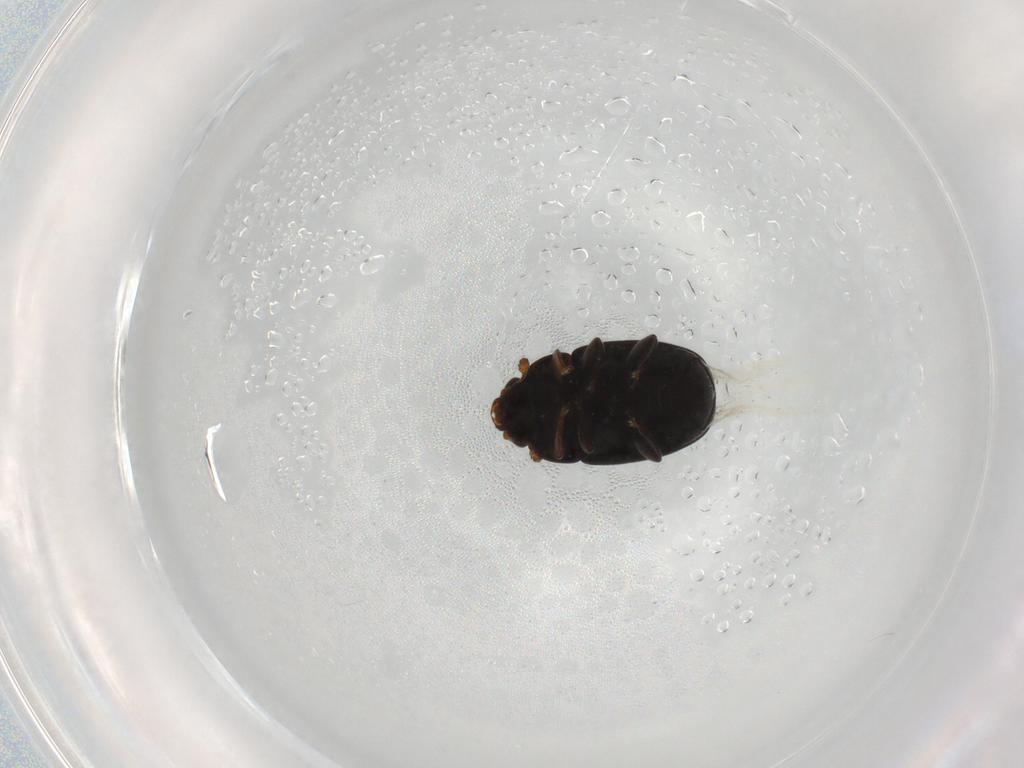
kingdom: Animalia
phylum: Arthropoda
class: Insecta
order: Coleoptera
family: Nitidulidae
